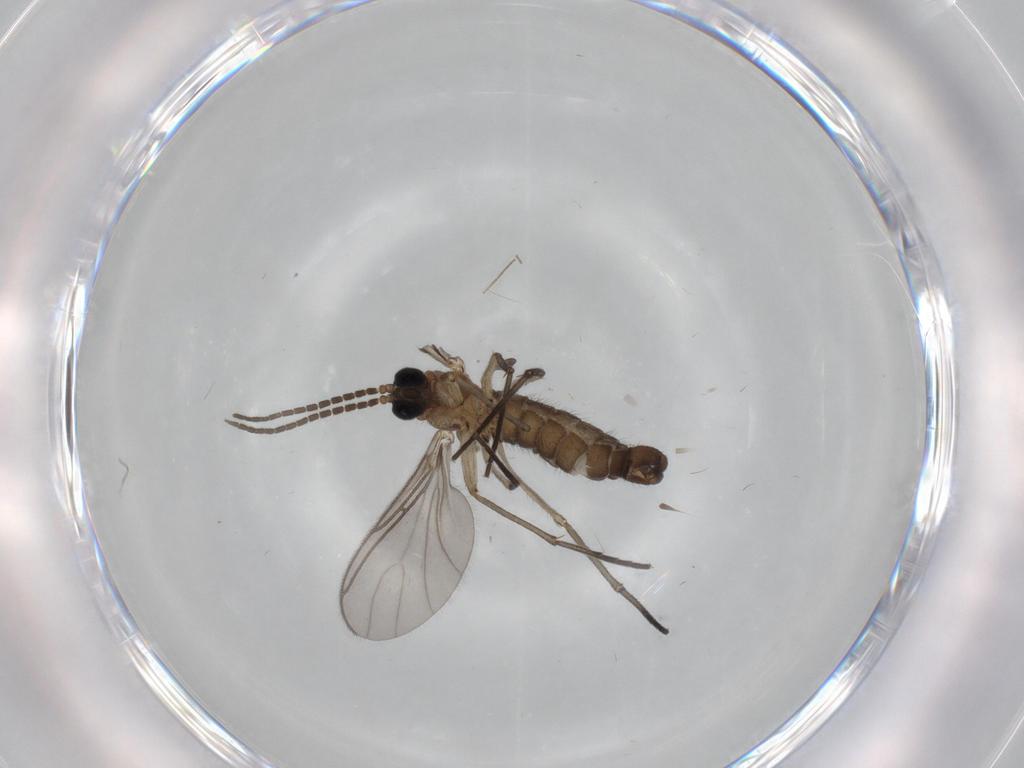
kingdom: Animalia
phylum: Arthropoda
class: Insecta
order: Diptera
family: Sciaridae
